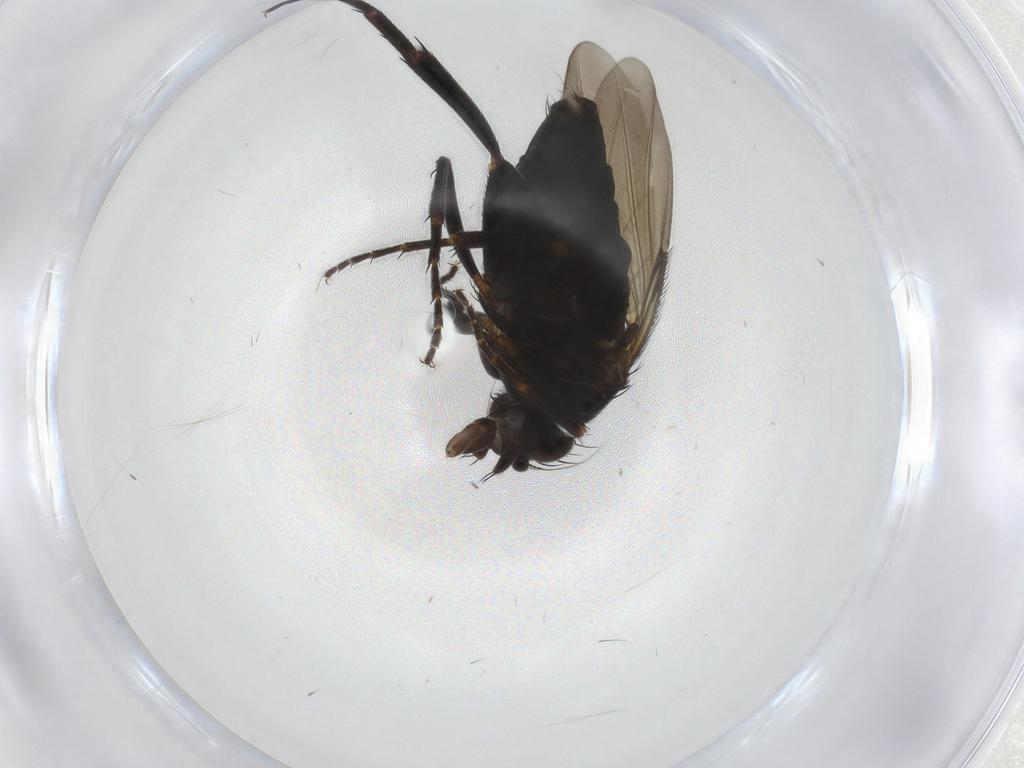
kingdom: Animalia
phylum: Arthropoda
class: Insecta
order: Diptera
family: Phoridae
